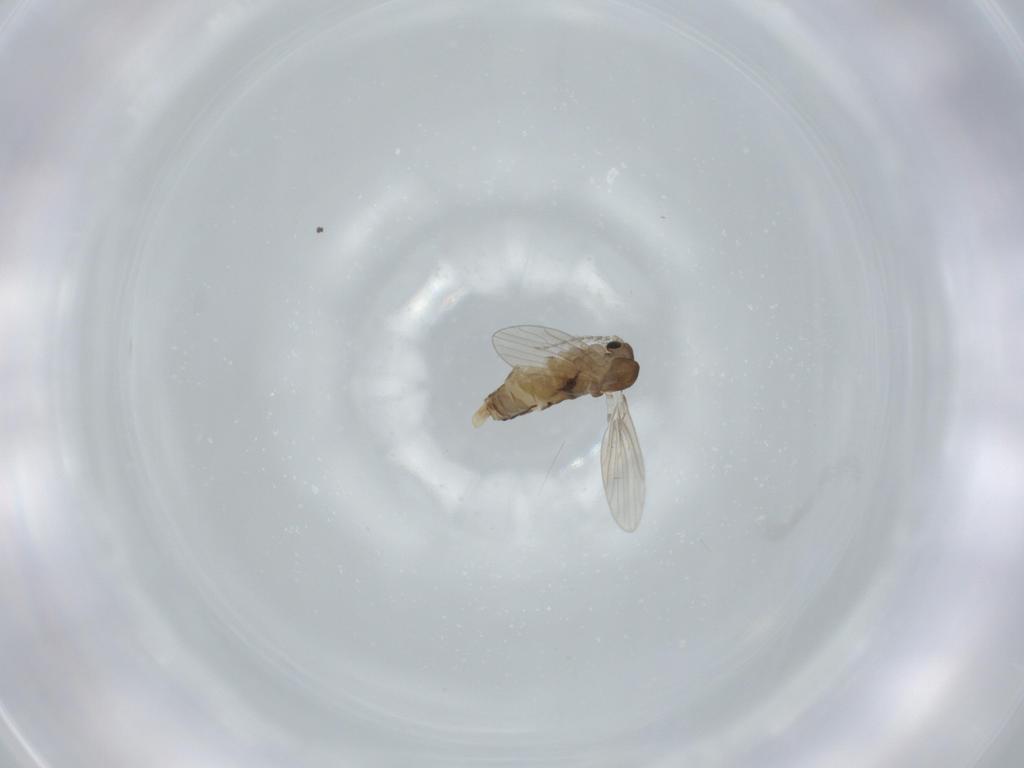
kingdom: Animalia
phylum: Arthropoda
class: Insecta
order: Diptera
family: Psychodidae
